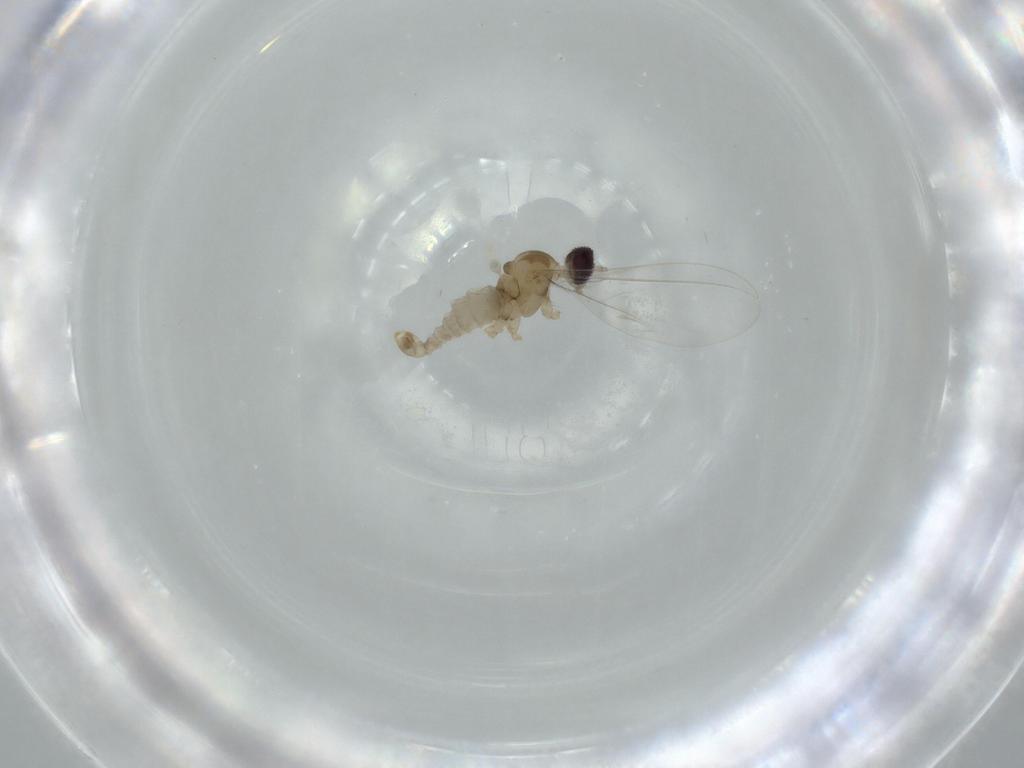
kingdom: Animalia
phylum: Arthropoda
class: Insecta
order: Diptera
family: Cecidomyiidae
